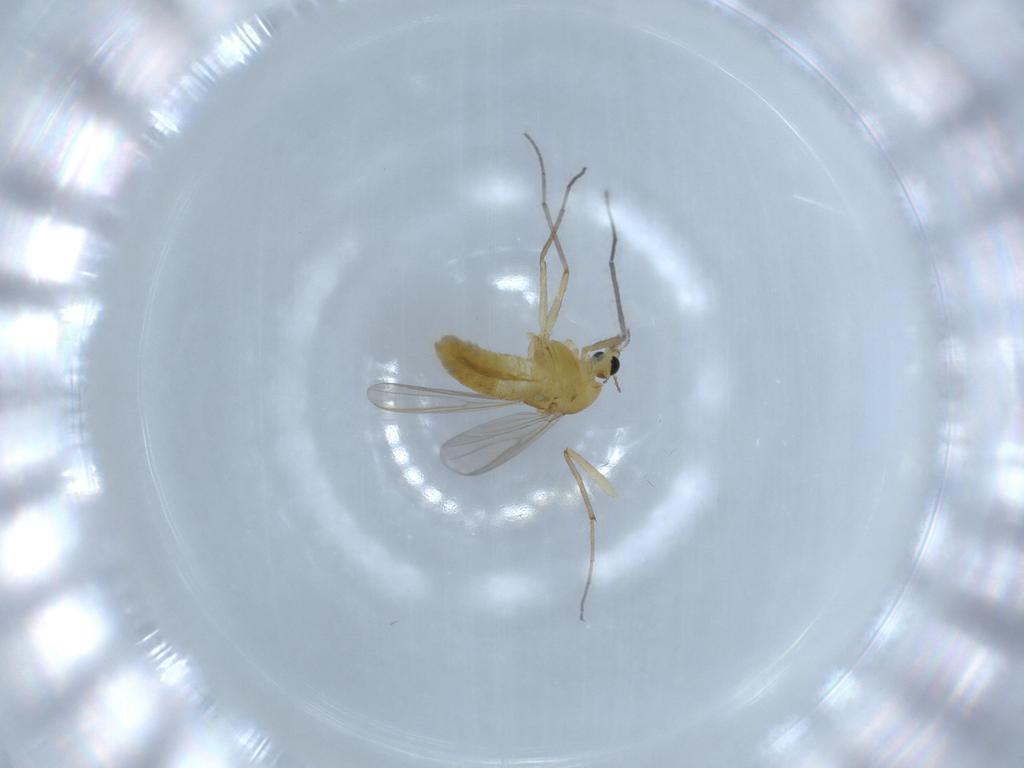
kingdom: Animalia
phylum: Arthropoda
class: Insecta
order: Diptera
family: Chironomidae
